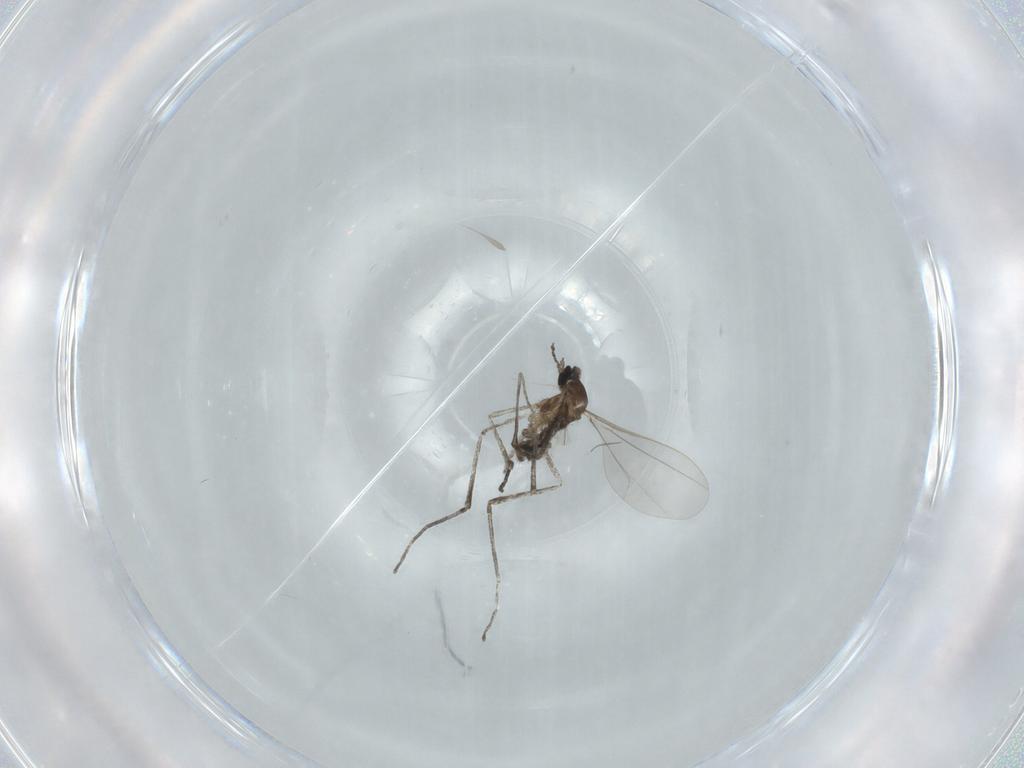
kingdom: Animalia
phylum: Arthropoda
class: Insecta
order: Diptera
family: Cecidomyiidae
